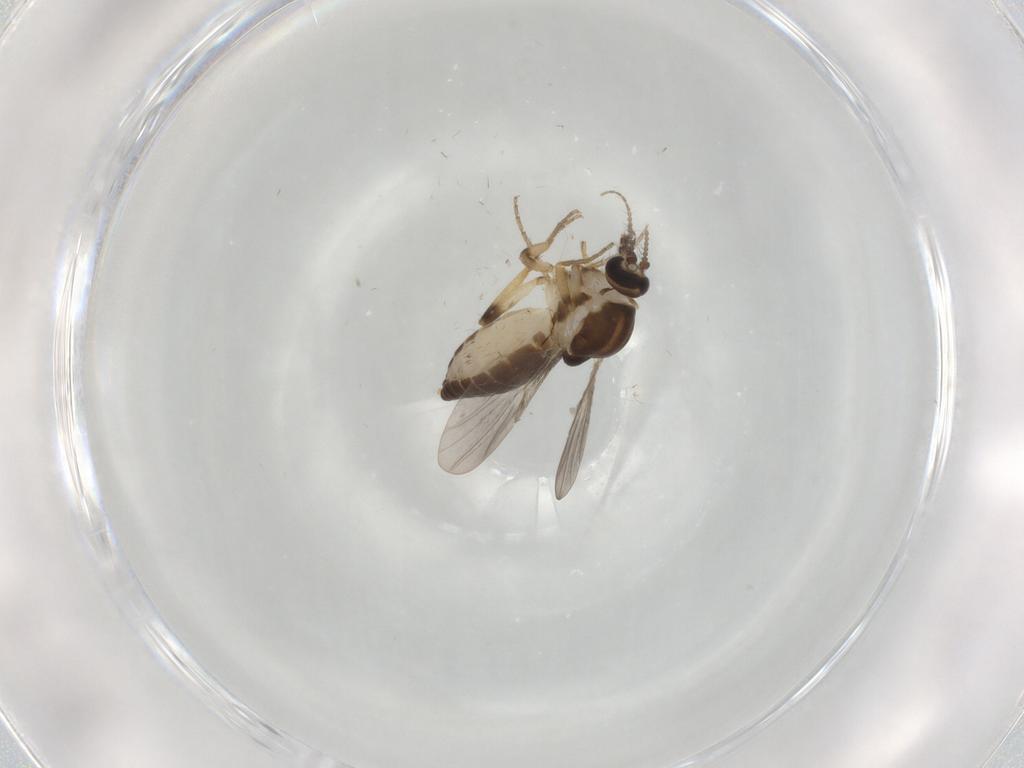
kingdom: Animalia
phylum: Arthropoda
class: Insecta
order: Diptera
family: Ceratopogonidae
